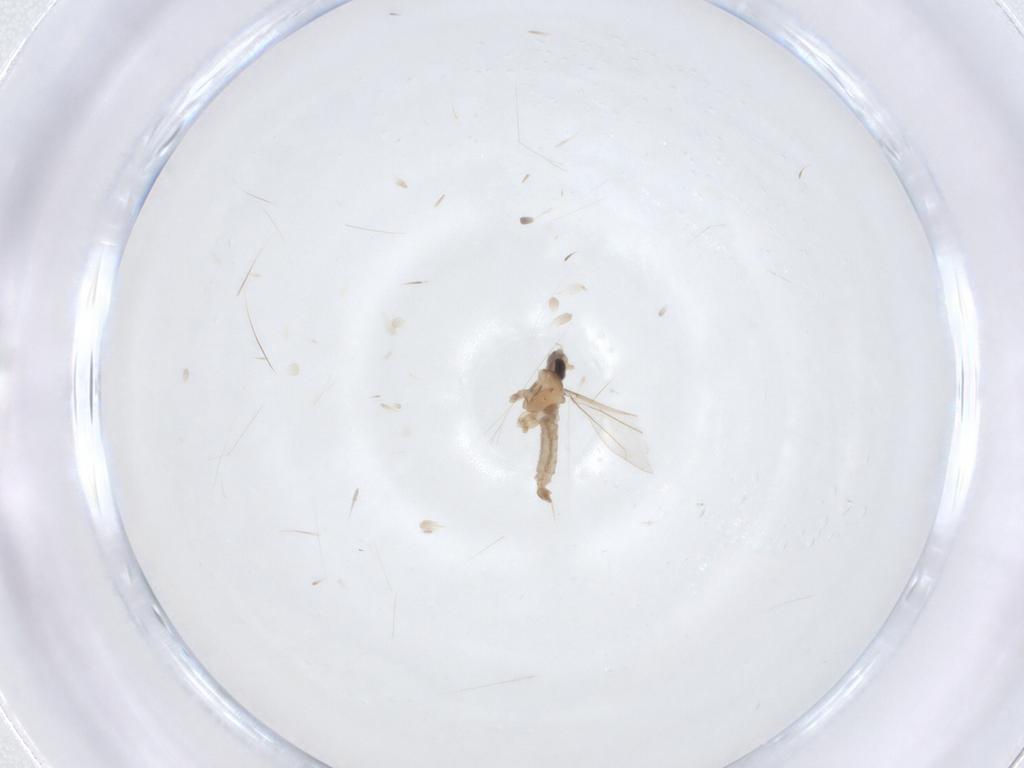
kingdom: Animalia
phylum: Arthropoda
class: Insecta
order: Diptera
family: Cecidomyiidae
